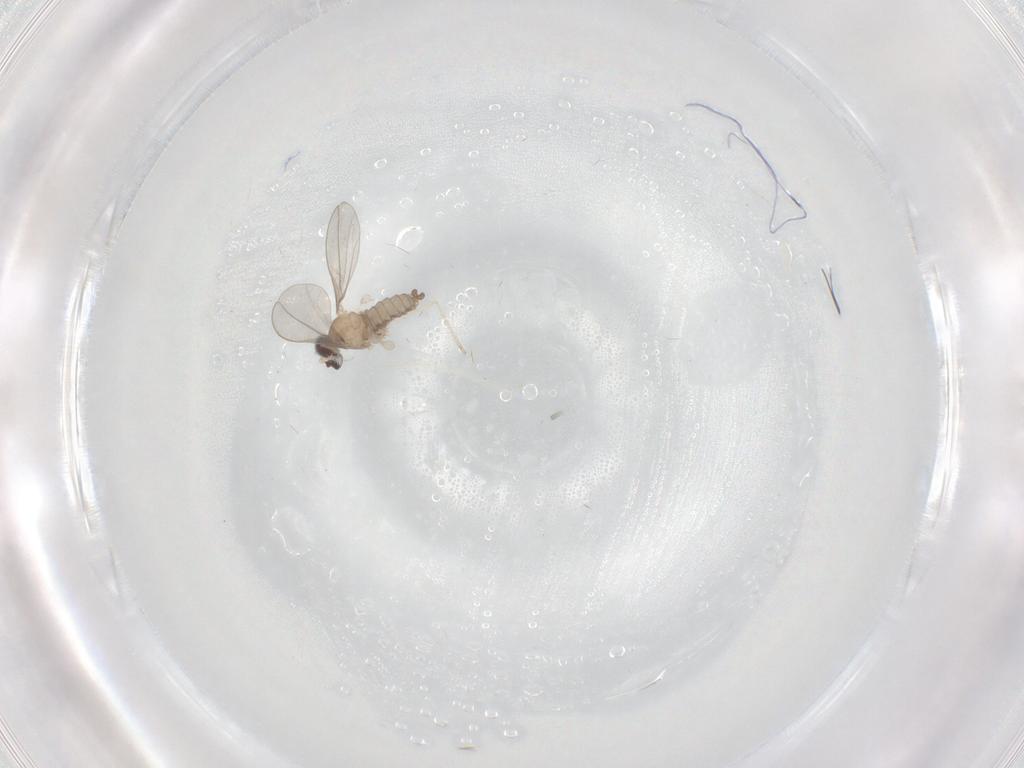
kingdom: Animalia
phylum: Arthropoda
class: Insecta
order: Diptera
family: Cecidomyiidae
